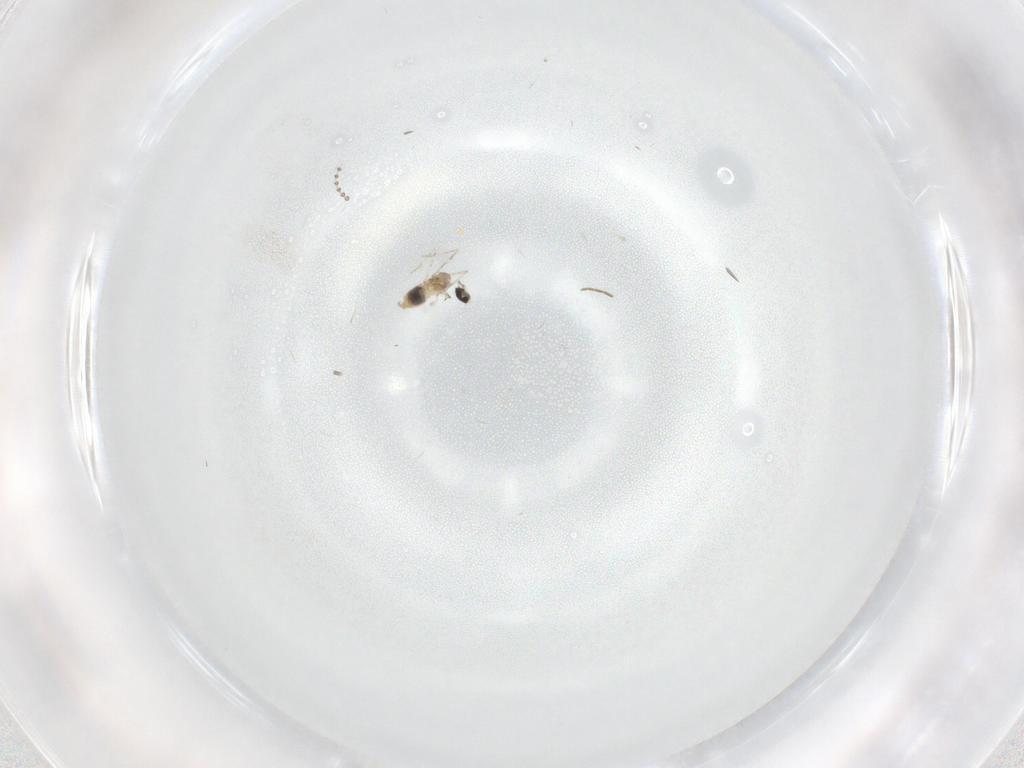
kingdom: Animalia
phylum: Arthropoda
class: Insecta
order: Diptera
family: Cecidomyiidae
